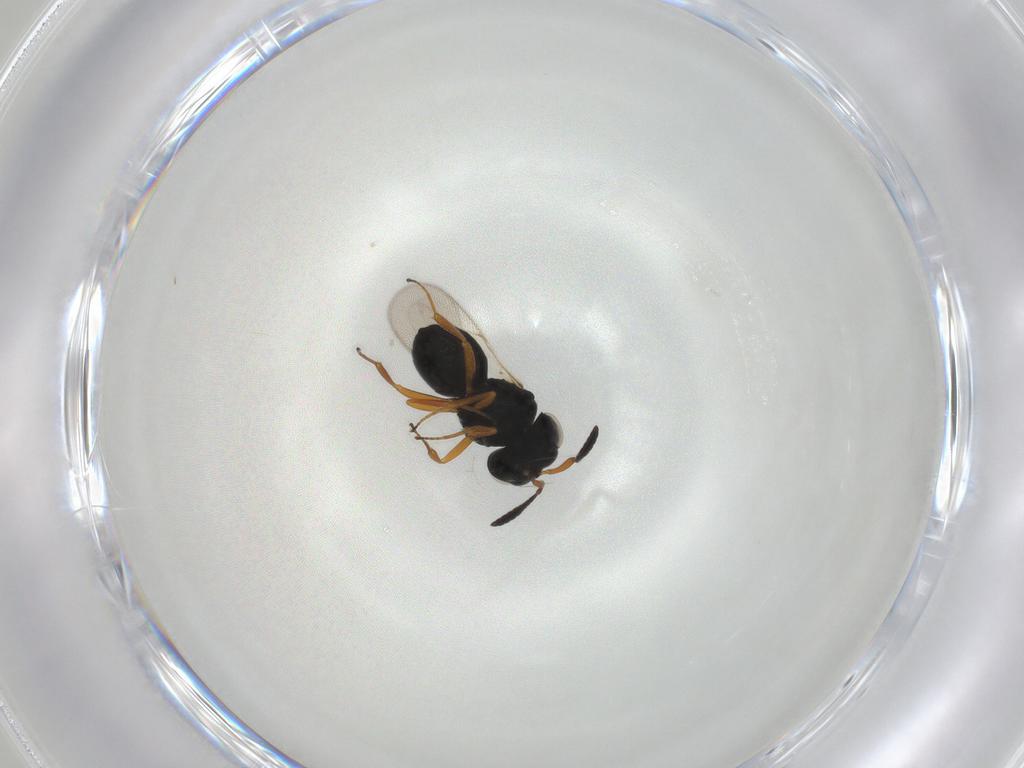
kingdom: Animalia
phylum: Arthropoda
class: Insecta
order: Hymenoptera
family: Scelionidae
